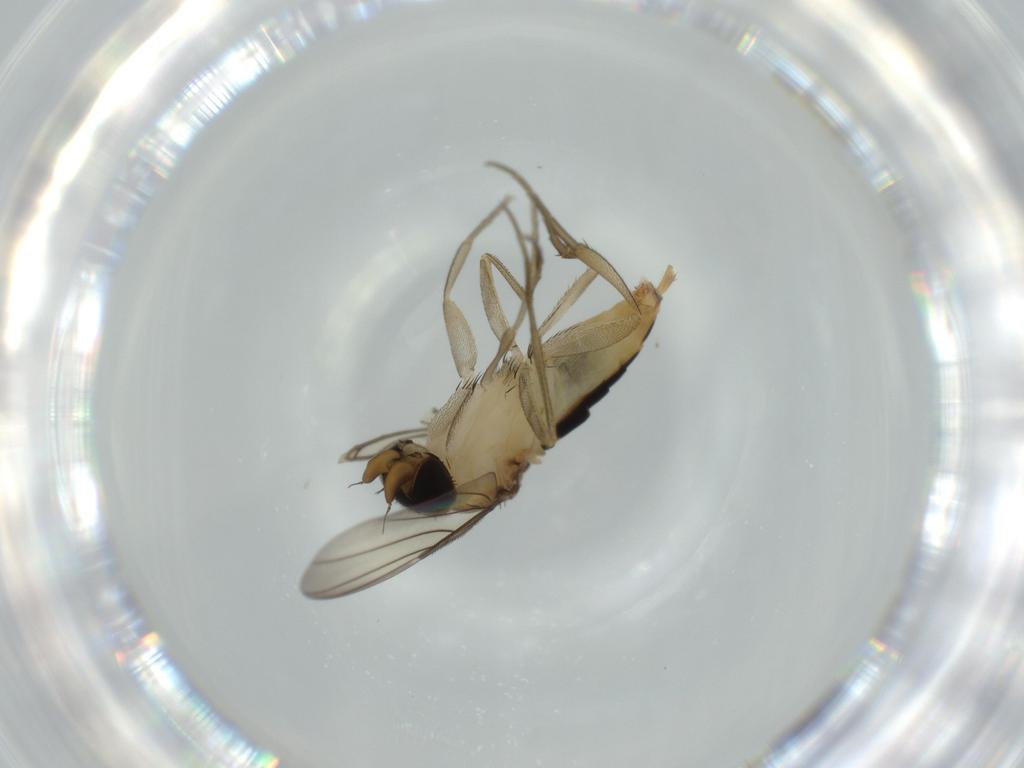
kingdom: Animalia
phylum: Arthropoda
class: Insecta
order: Diptera
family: Phoridae
